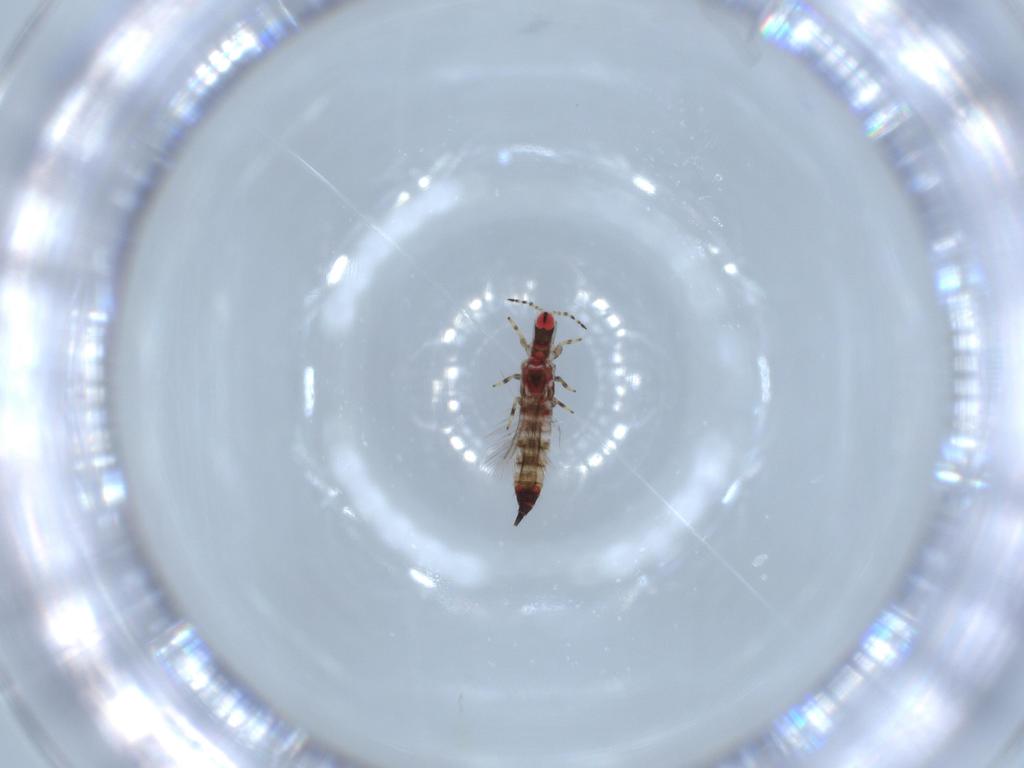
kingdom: Animalia
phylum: Arthropoda
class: Insecta
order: Thysanoptera
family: Phlaeothripidae
